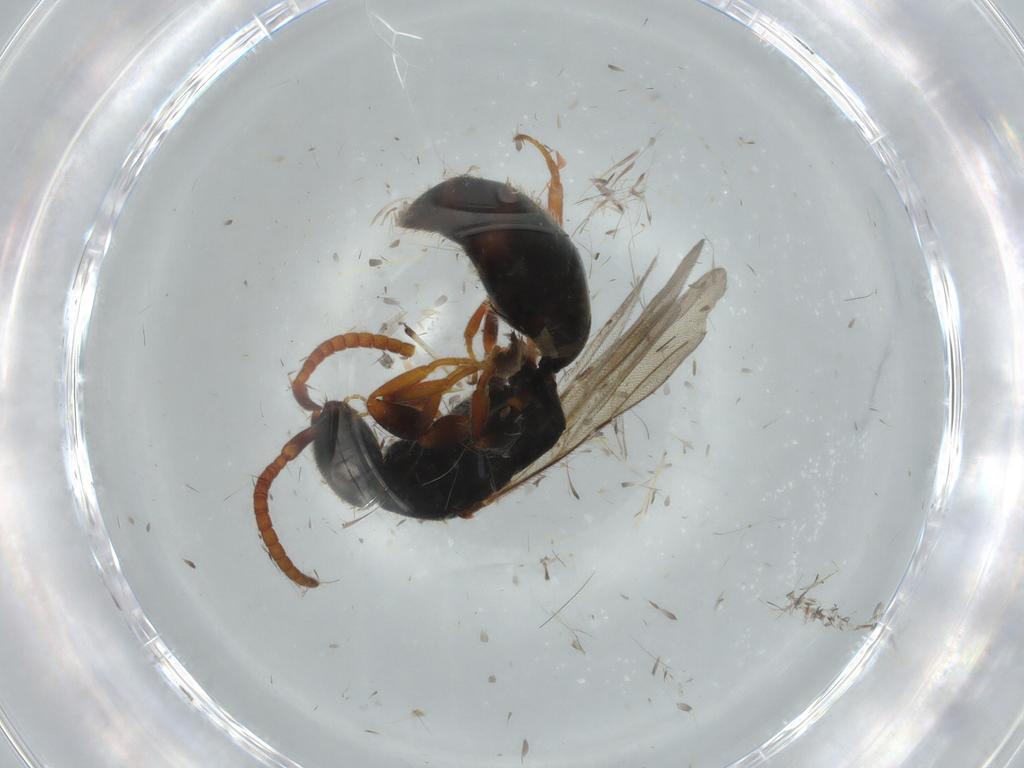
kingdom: Animalia
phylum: Arthropoda
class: Insecta
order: Hymenoptera
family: Bethylidae
